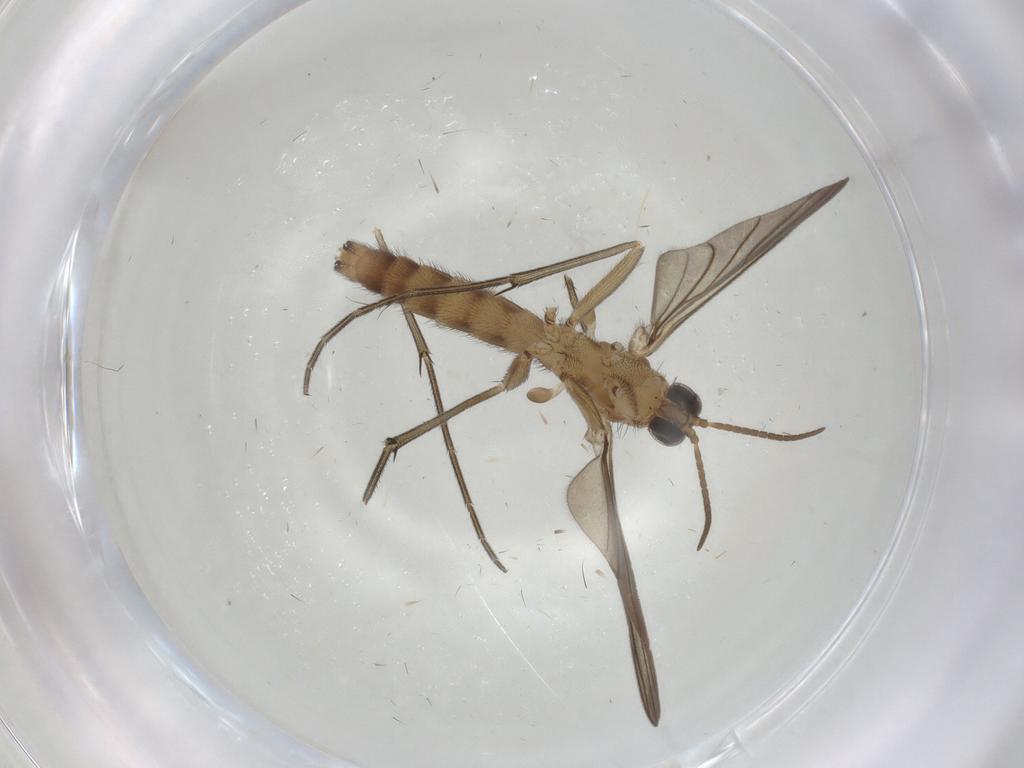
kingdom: Animalia
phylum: Arthropoda
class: Insecta
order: Diptera
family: Keroplatidae
